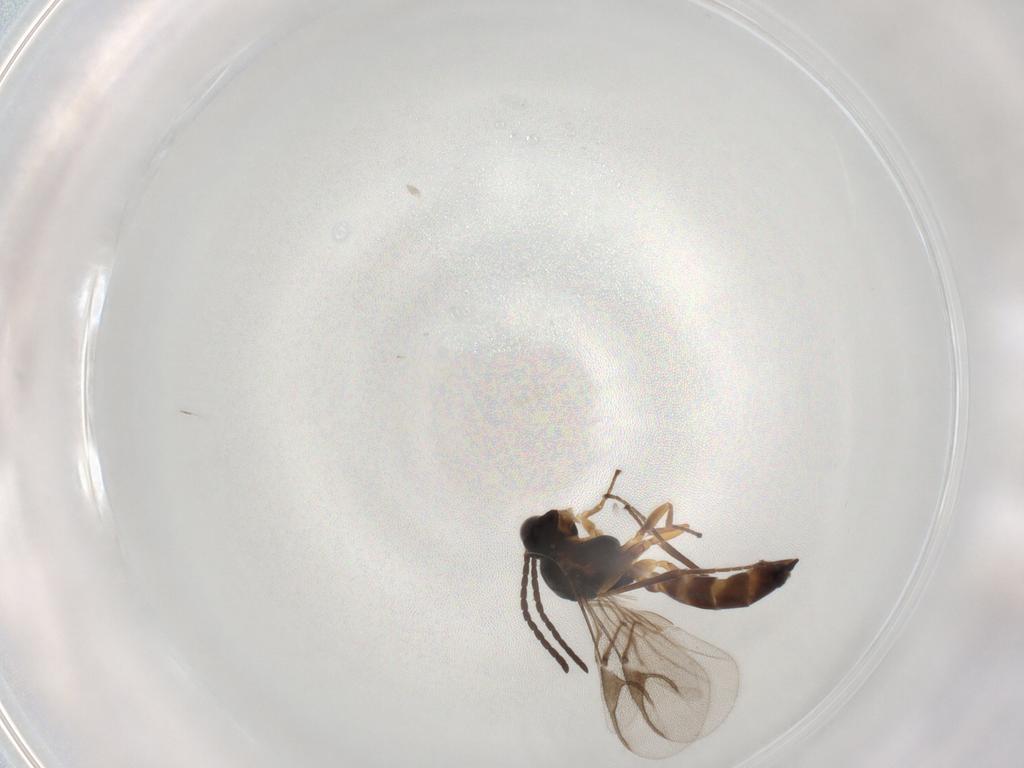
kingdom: Animalia
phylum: Arthropoda
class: Insecta
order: Hymenoptera
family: Braconidae
